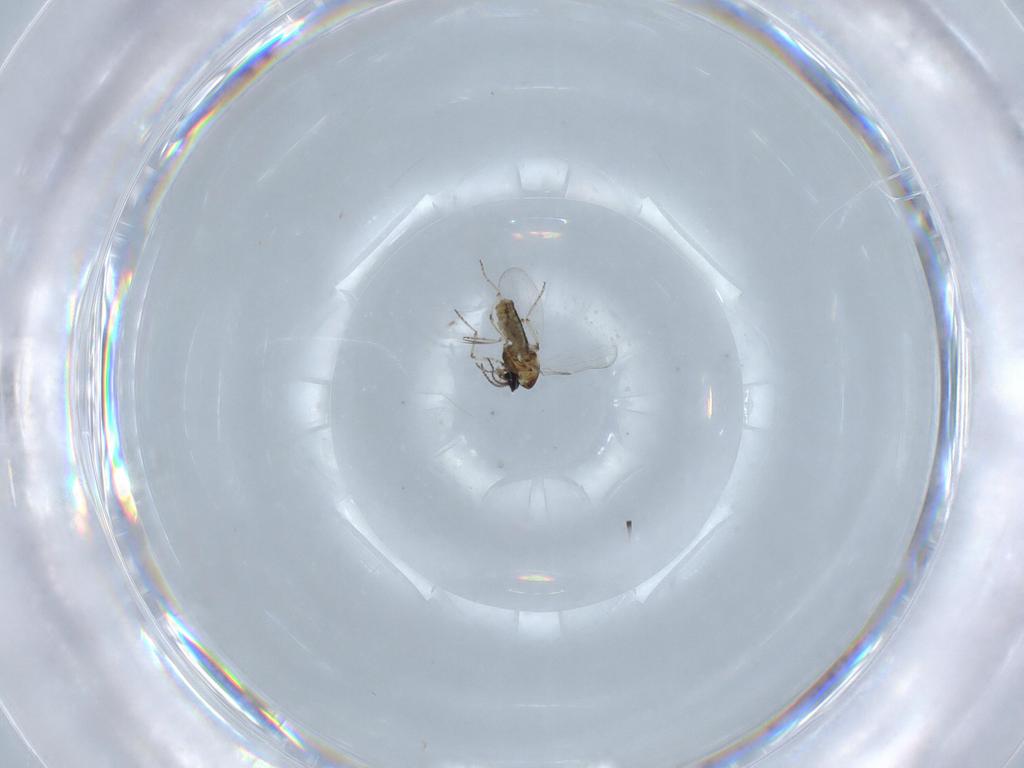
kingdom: Animalia
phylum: Arthropoda
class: Insecta
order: Diptera
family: Ceratopogonidae
